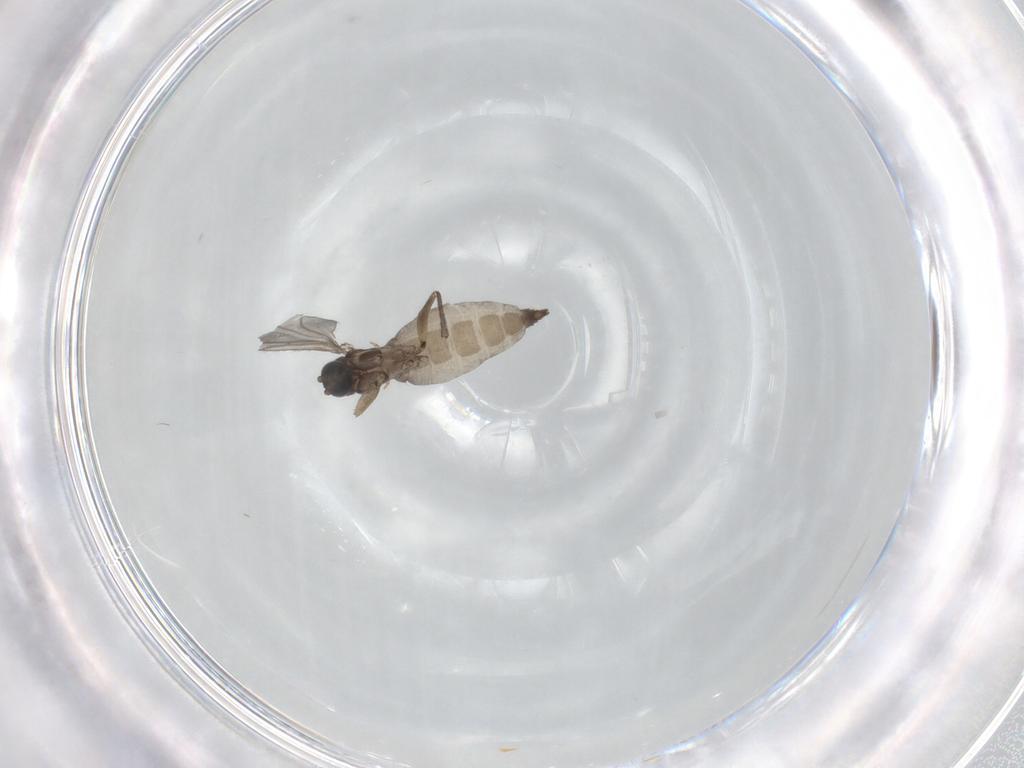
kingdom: Animalia
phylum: Arthropoda
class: Insecta
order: Diptera
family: Sciaridae
